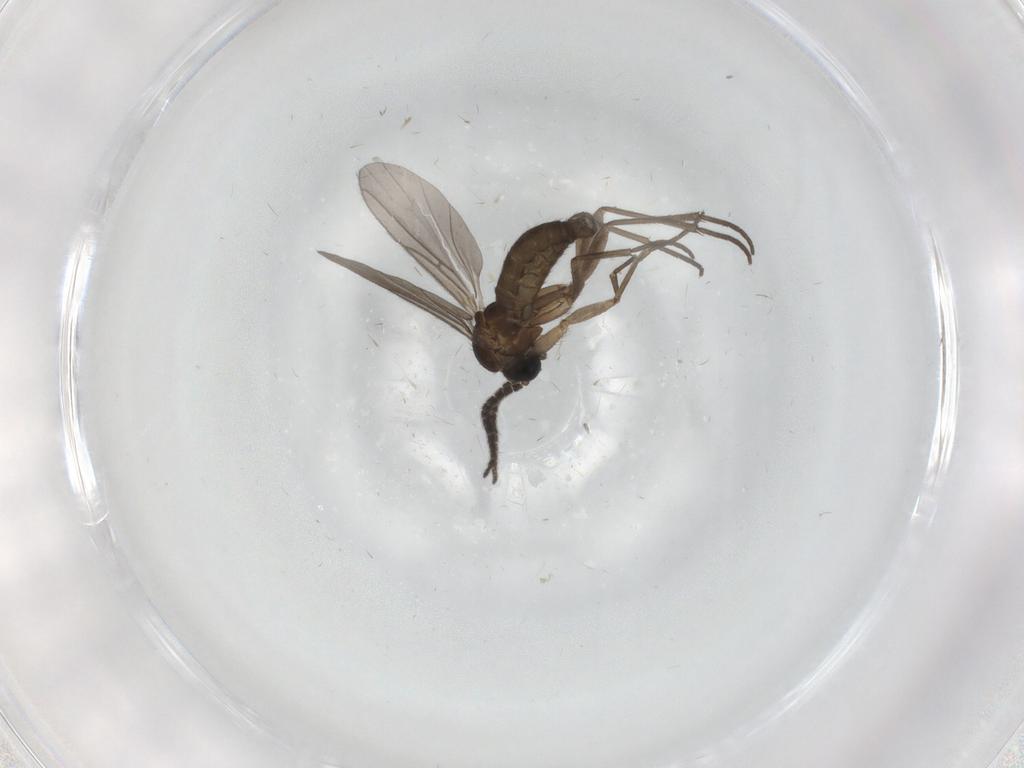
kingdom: Animalia
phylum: Arthropoda
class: Insecta
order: Diptera
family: Sciaridae
